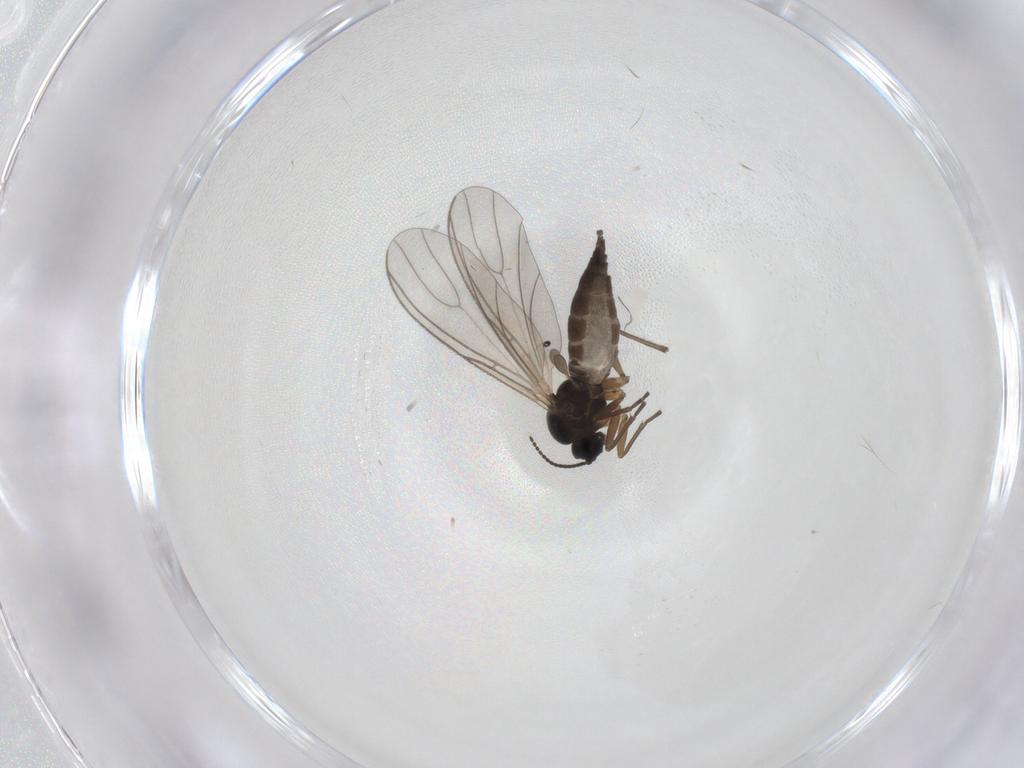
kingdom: Animalia
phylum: Arthropoda
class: Insecta
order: Diptera
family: Sciaridae
